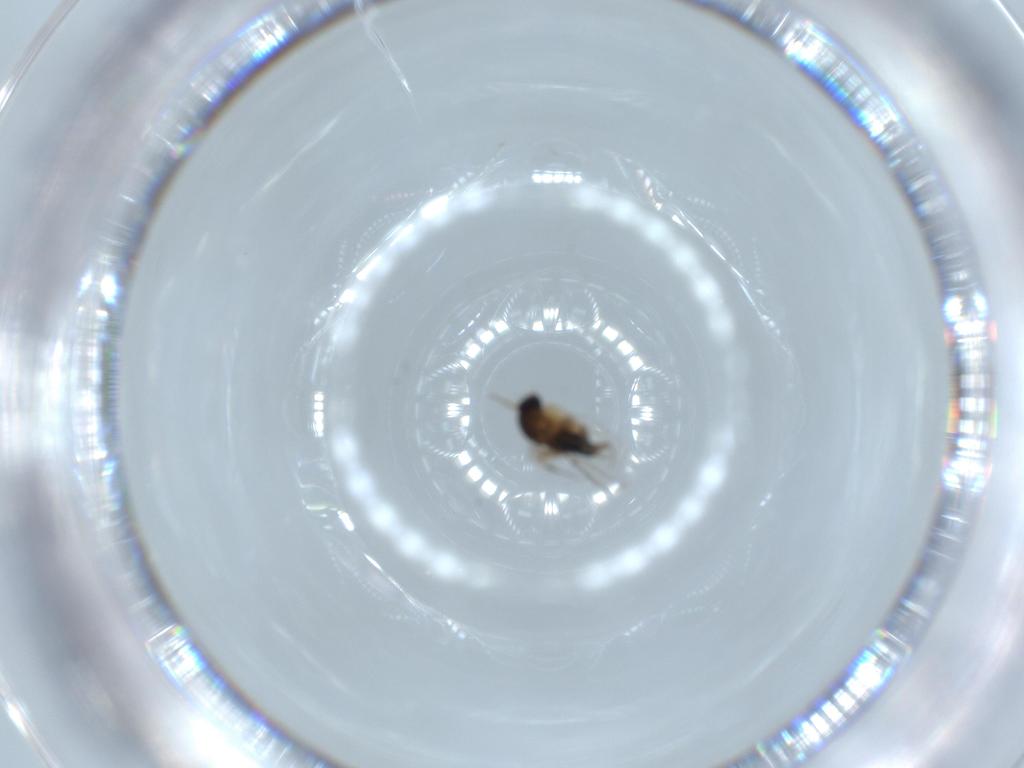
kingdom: Animalia
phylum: Arthropoda
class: Insecta
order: Diptera
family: Phoridae
